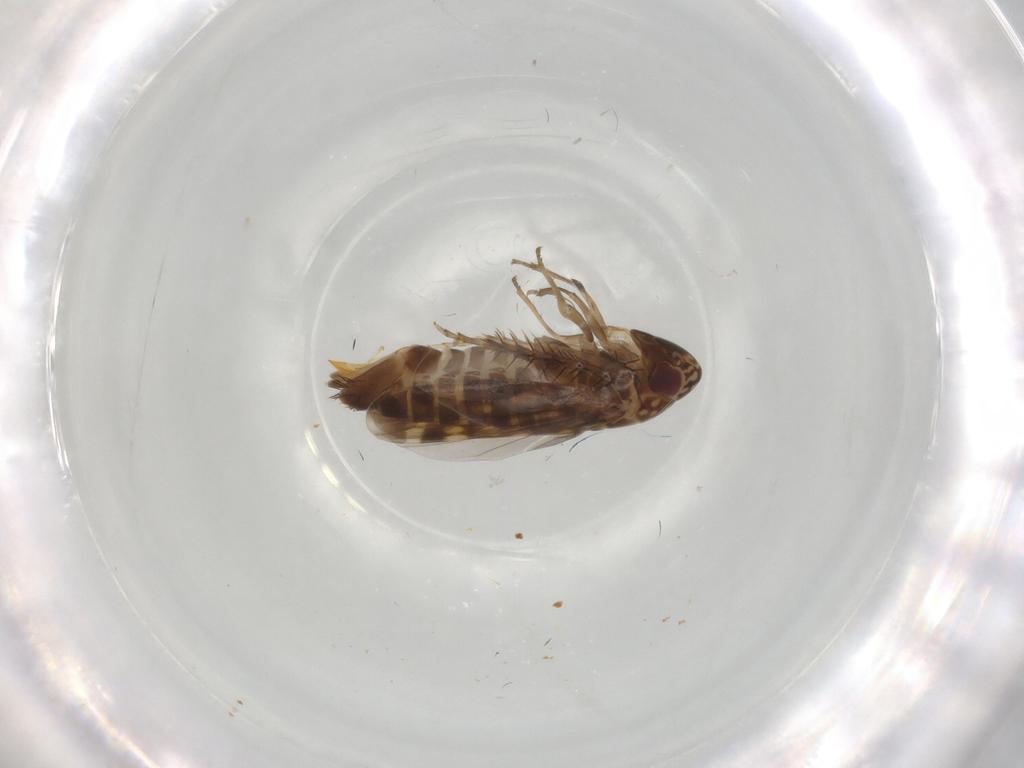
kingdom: Animalia
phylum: Arthropoda
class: Insecta
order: Hemiptera
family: Cicadellidae
